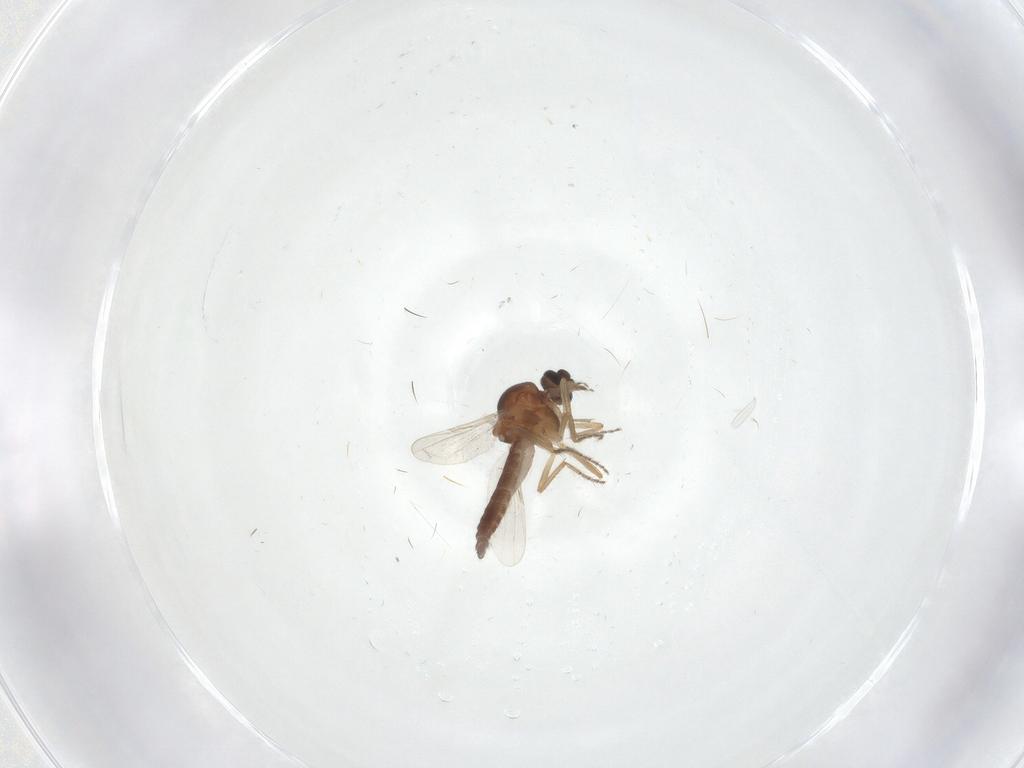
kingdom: Animalia
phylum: Arthropoda
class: Insecta
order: Diptera
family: Ceratopogonidae
